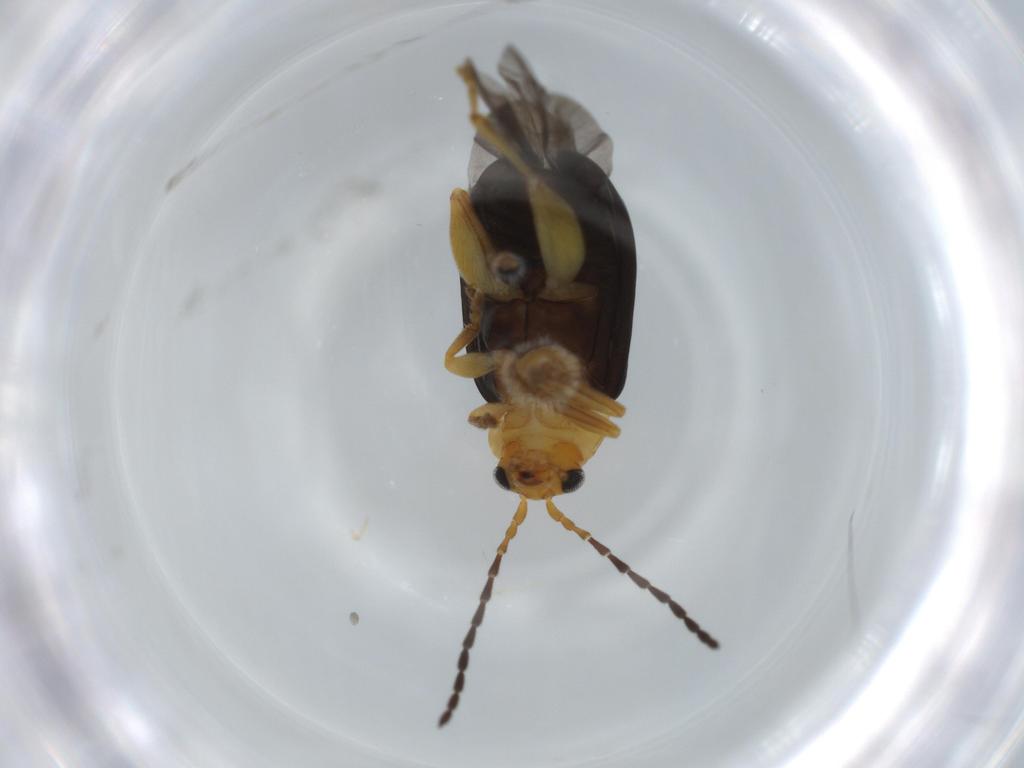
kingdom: Animalia
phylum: Arthropoda
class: Insecta
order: Coleoptera
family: Chrysomelidae
